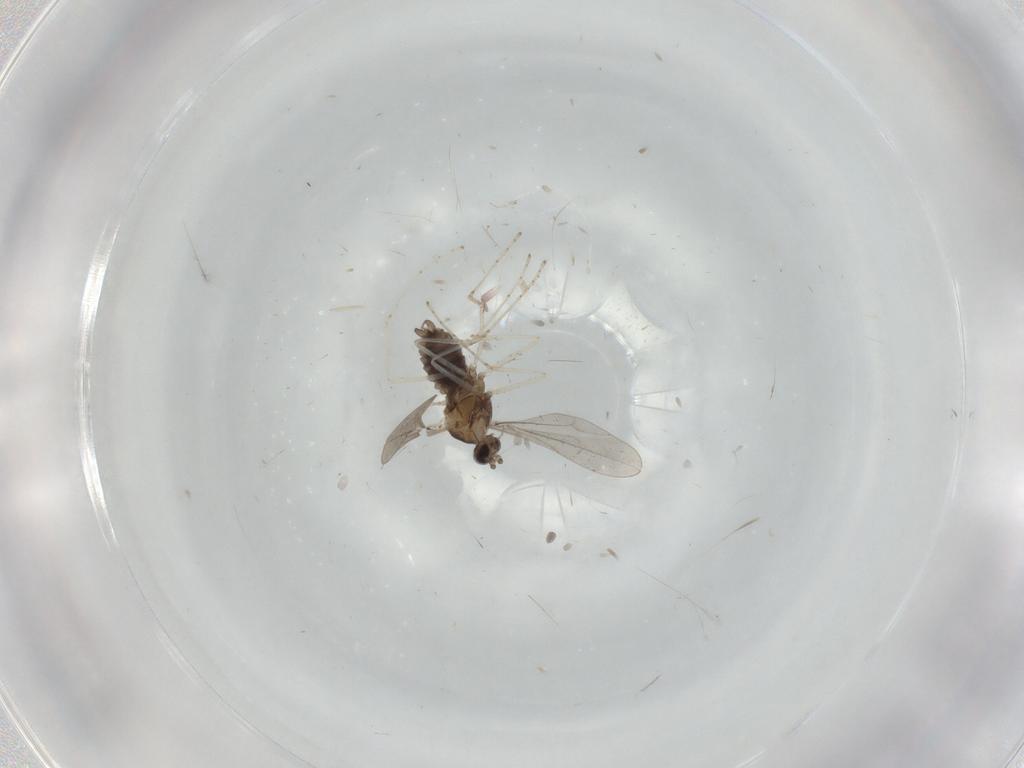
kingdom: Animalia
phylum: Arthropoda
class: Insecta
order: Diptera
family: Cecidomyiidae
